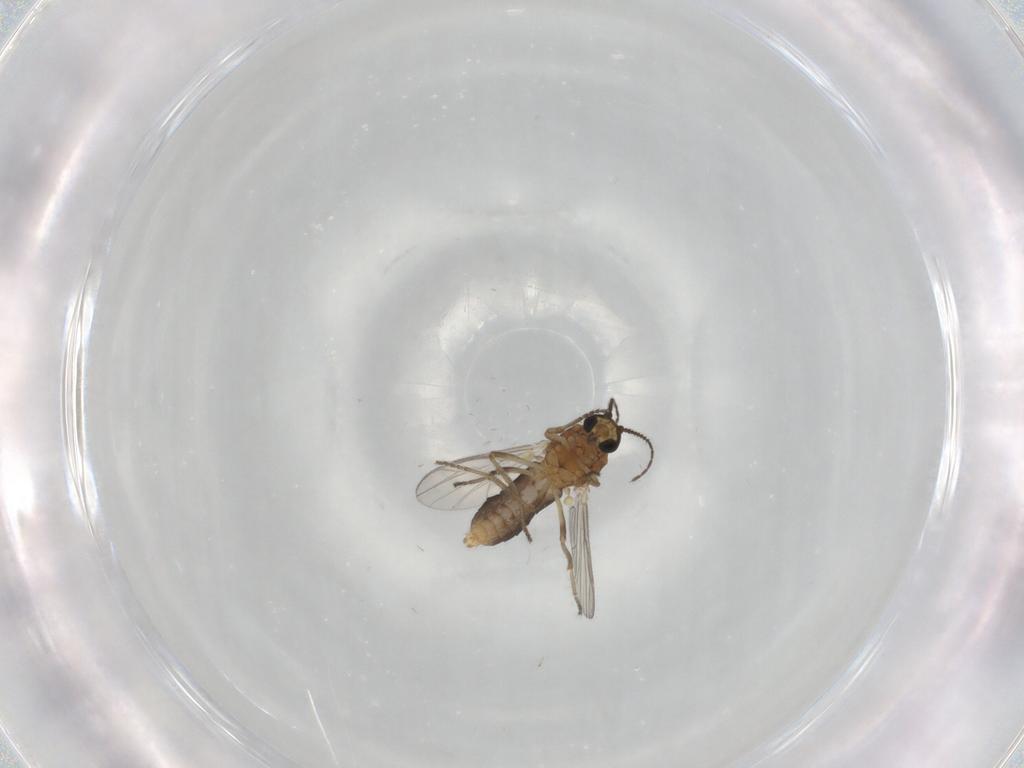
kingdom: Animalia
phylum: Arthropoda
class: Insecta
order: Diptera
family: Ceratopogonidae
